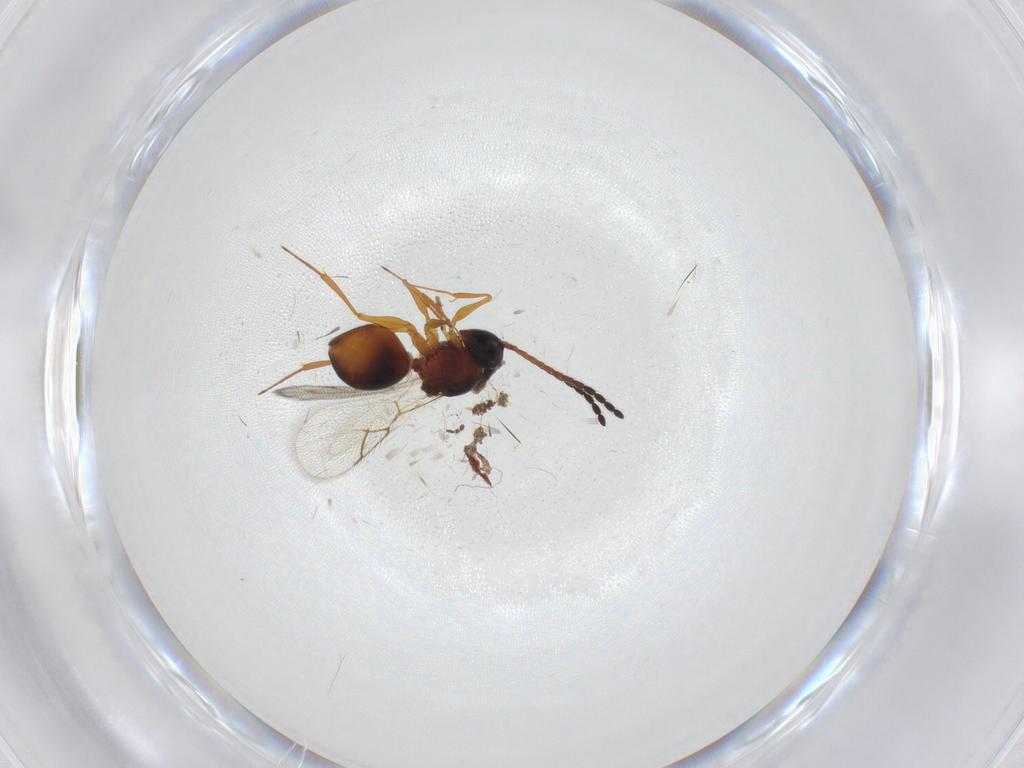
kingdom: Animalia
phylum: Arthropoda
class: Insecta
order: Hymenoptera
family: Figitidae
